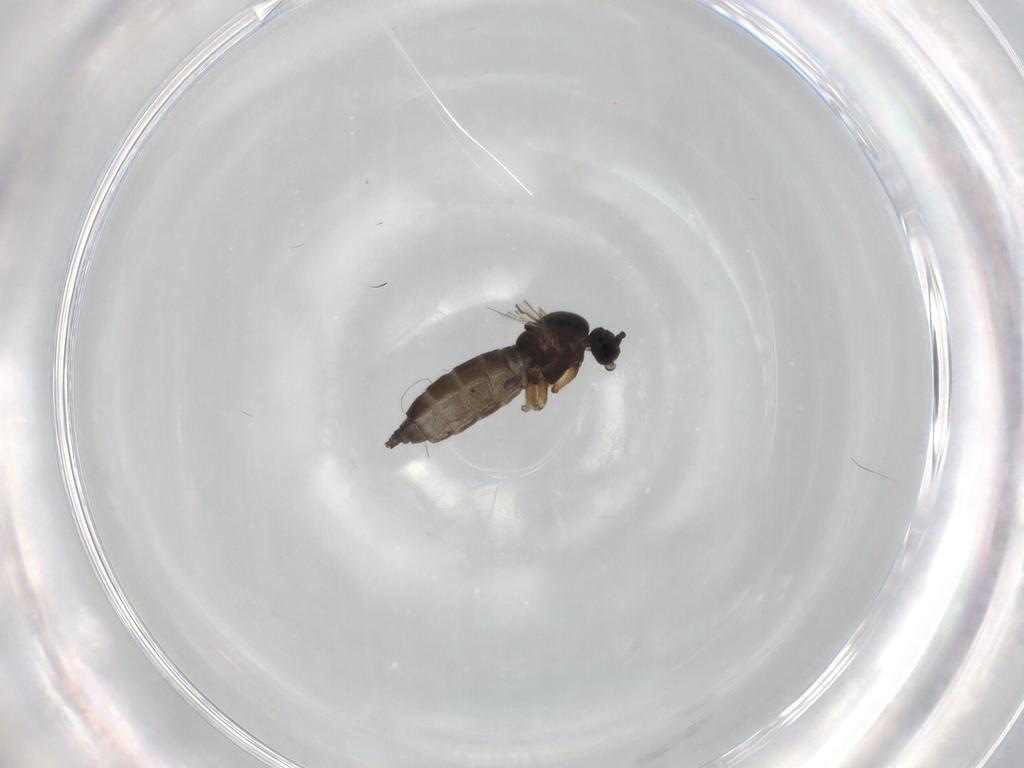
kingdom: Animalia
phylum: Arthropoda
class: Insecta
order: Diptera
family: Sciaridae
